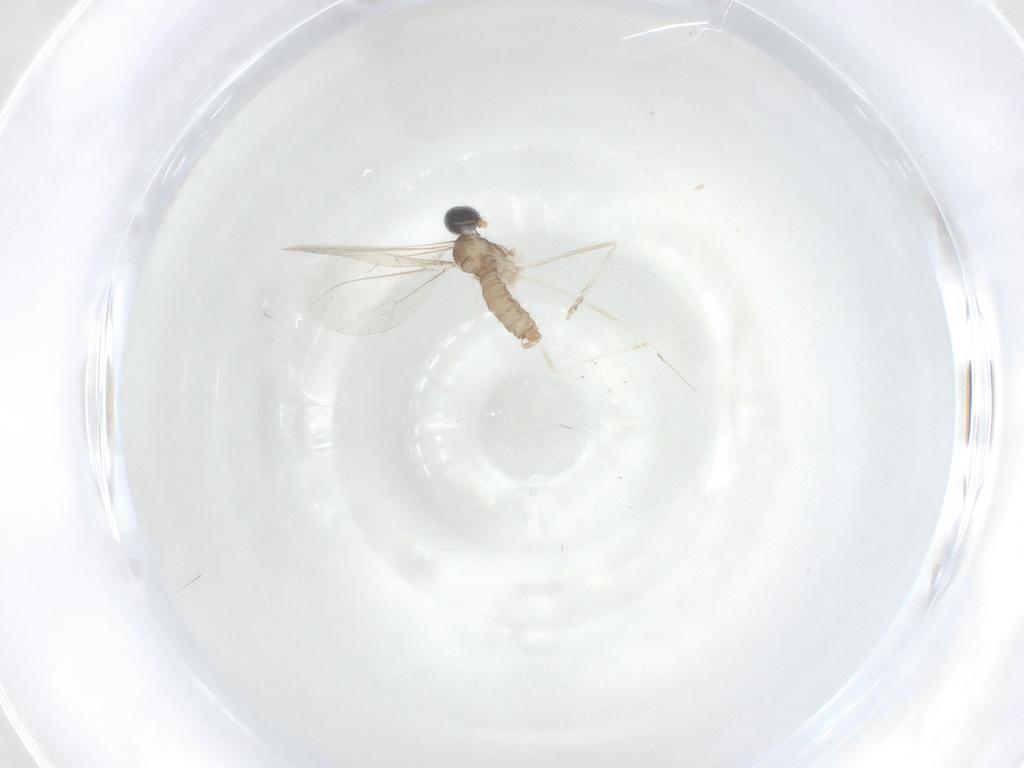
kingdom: Animalia
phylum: Arthropoda
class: Insecta
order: Diptera
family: Cecidomyiidae
